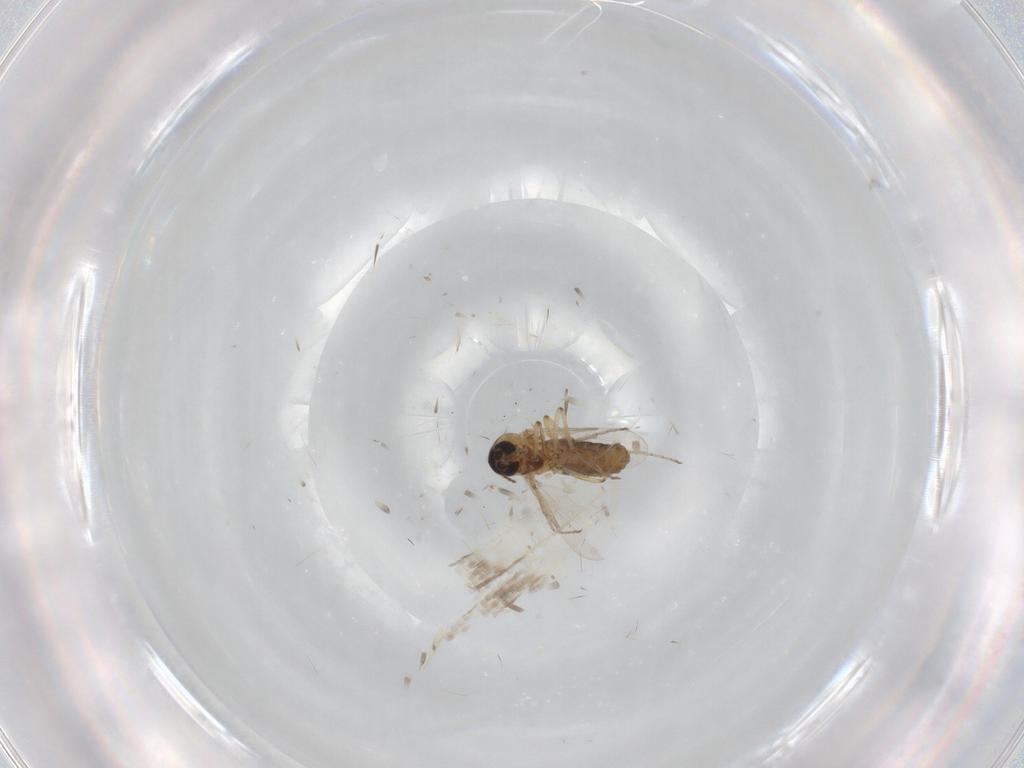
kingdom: Animalia
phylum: Arthropoda
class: Insecta
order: Diptera
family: Ceratopogonidae
